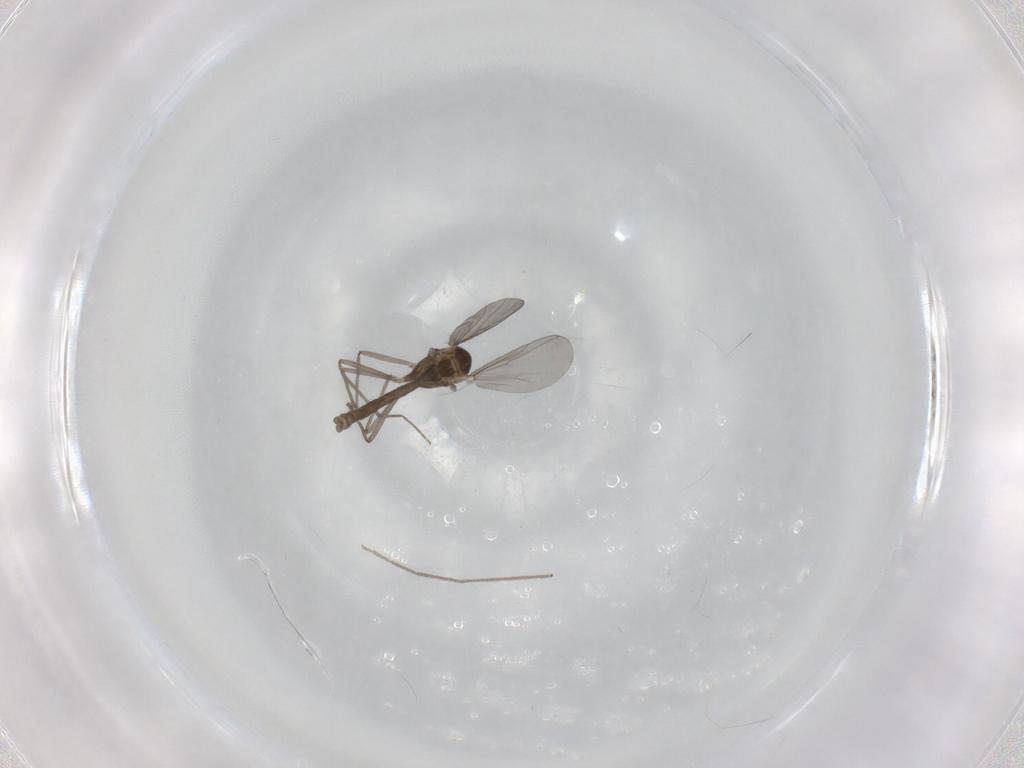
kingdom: Animalia
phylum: Arthropoda
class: Insecta
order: Diptera
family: Chironomidae
